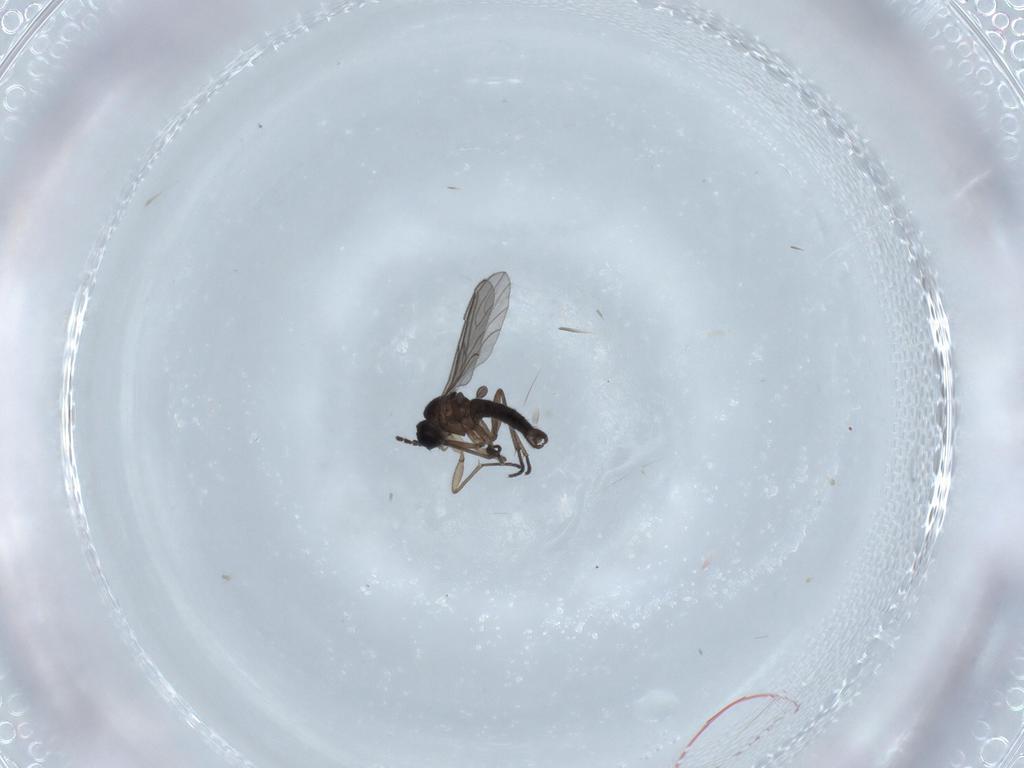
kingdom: Animalia
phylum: Arthropoda
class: Insecta
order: Diptera
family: Sciaridae
